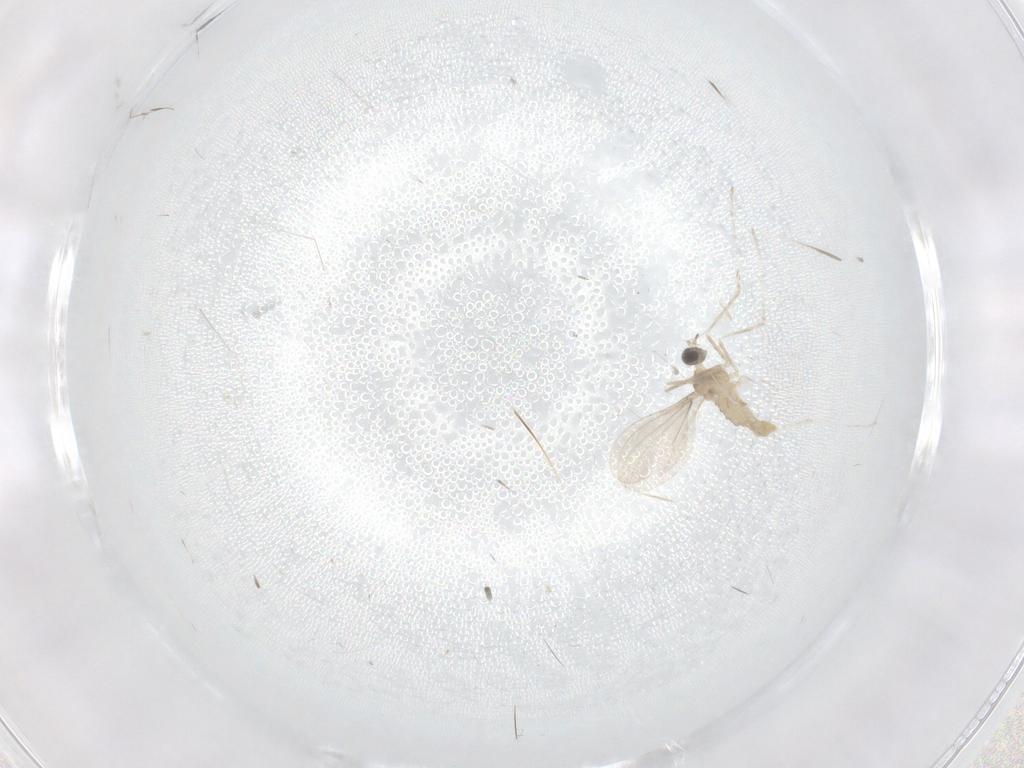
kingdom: Animalia
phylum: Arthropoda
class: Insecta
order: Diptera
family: Cecidomyiidae
